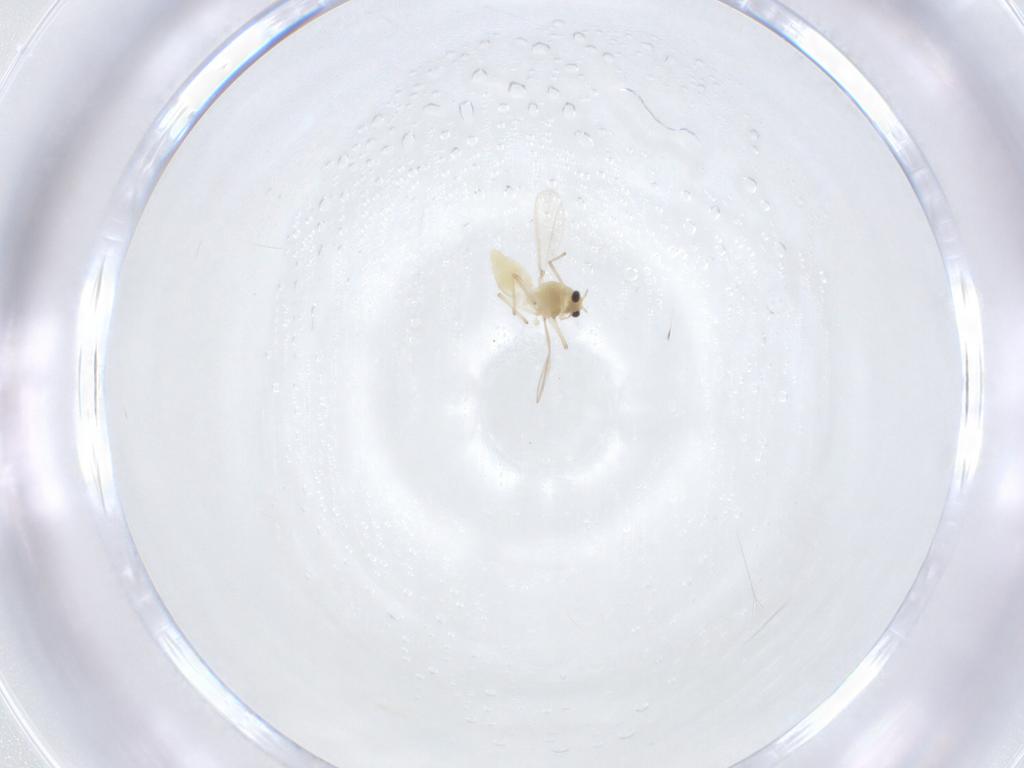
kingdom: Animalia
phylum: Arthropoda
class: Insecta
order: Diptera
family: Chironomidae
